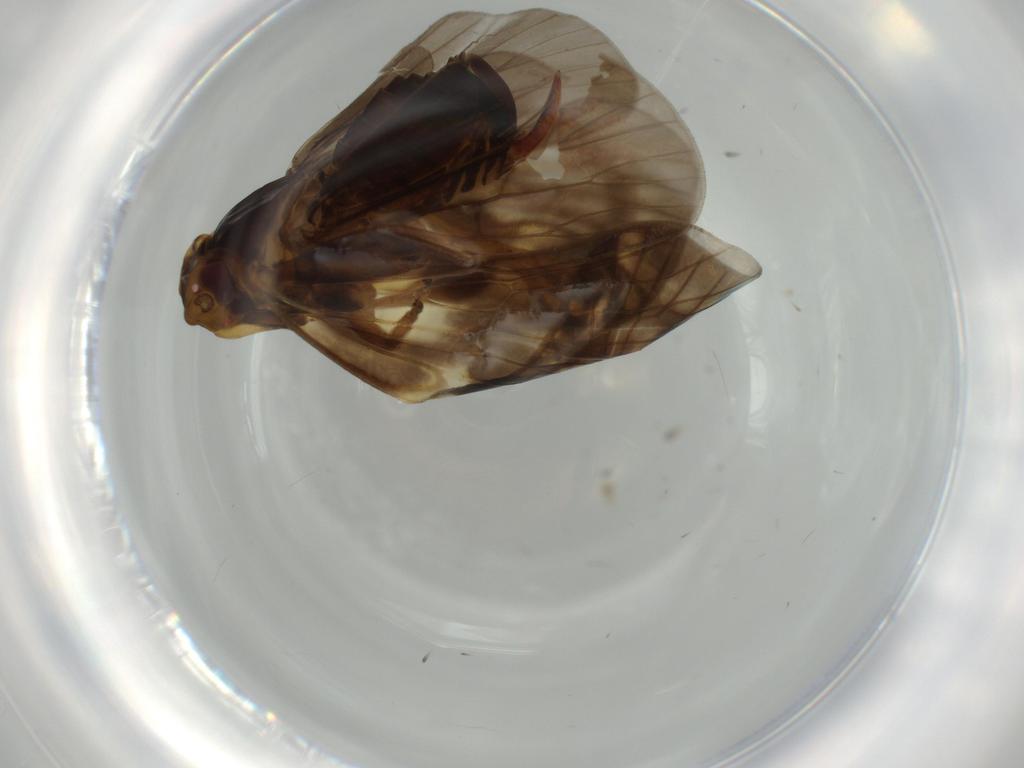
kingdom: Animalia
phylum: Arthropoda
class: Insecta
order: Hemiptera
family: Cixiidae
